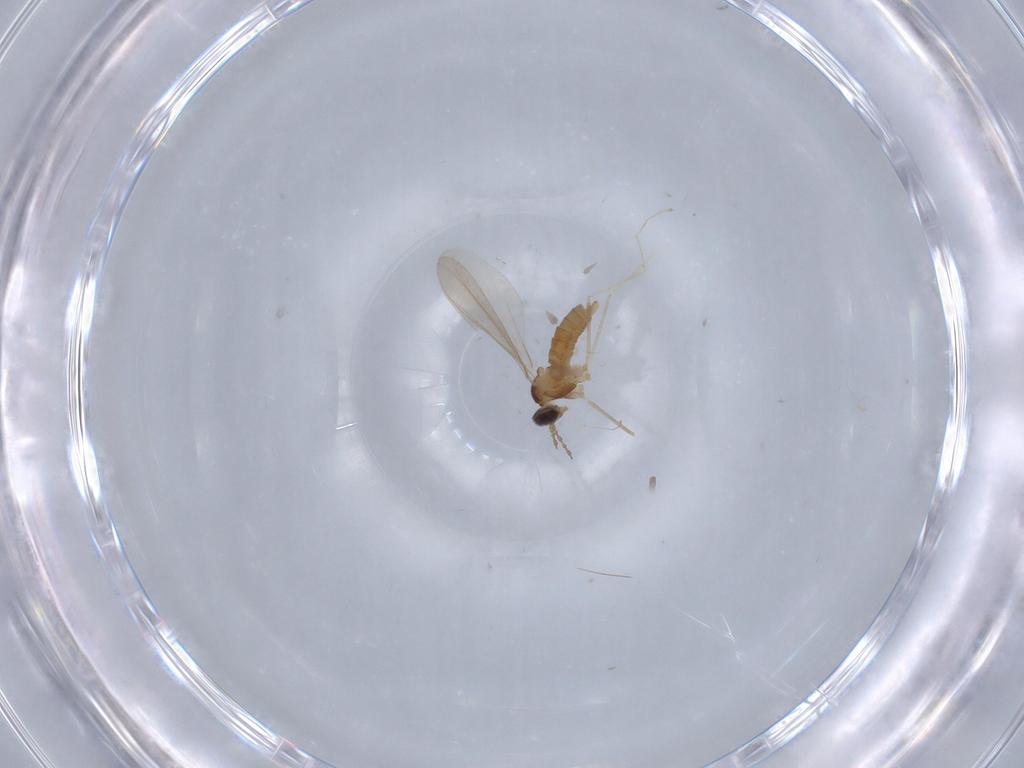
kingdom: Animalia
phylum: Arthropoda
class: Insecta
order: Diptera
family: Cecidomyiidae
